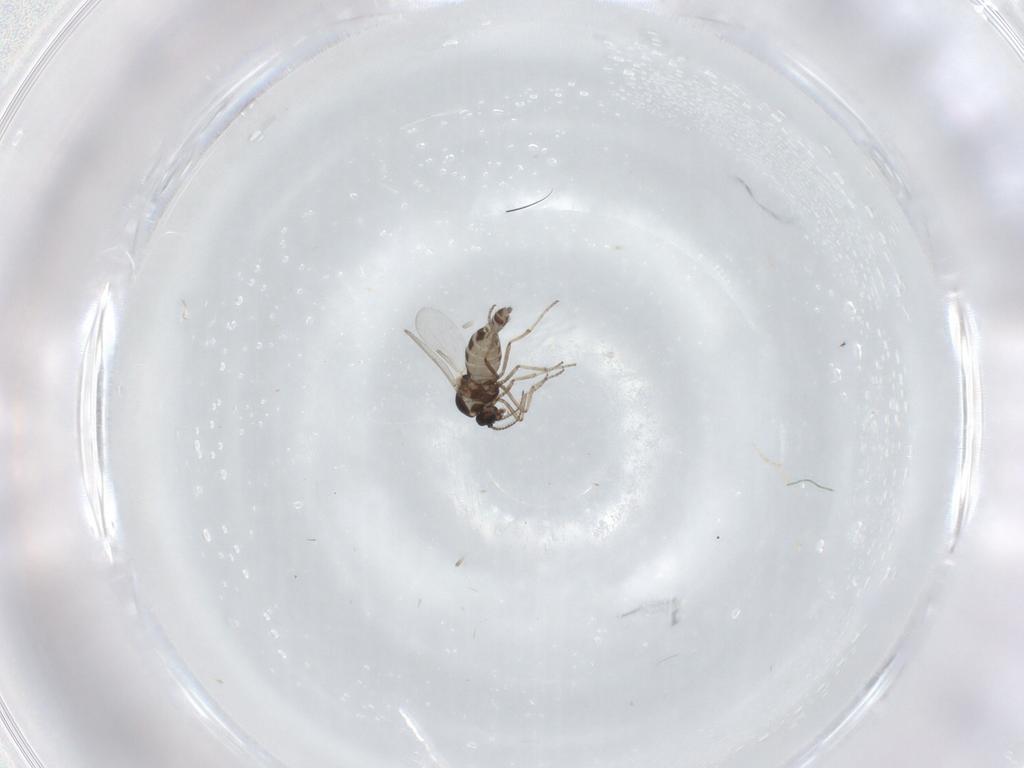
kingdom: Animalia
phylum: Arthropoda
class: Insecta
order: Diptera
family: Ceratopogonidae
